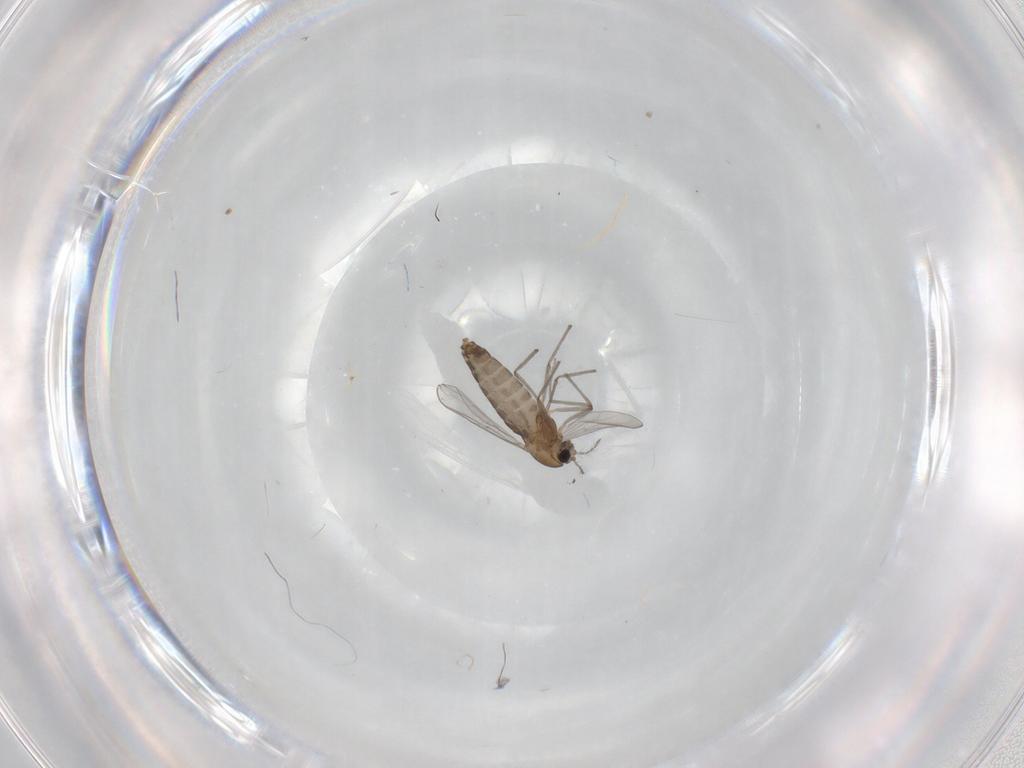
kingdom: Animalia
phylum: Arthropoda
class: Insecta
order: Diptera
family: Chironomidae
